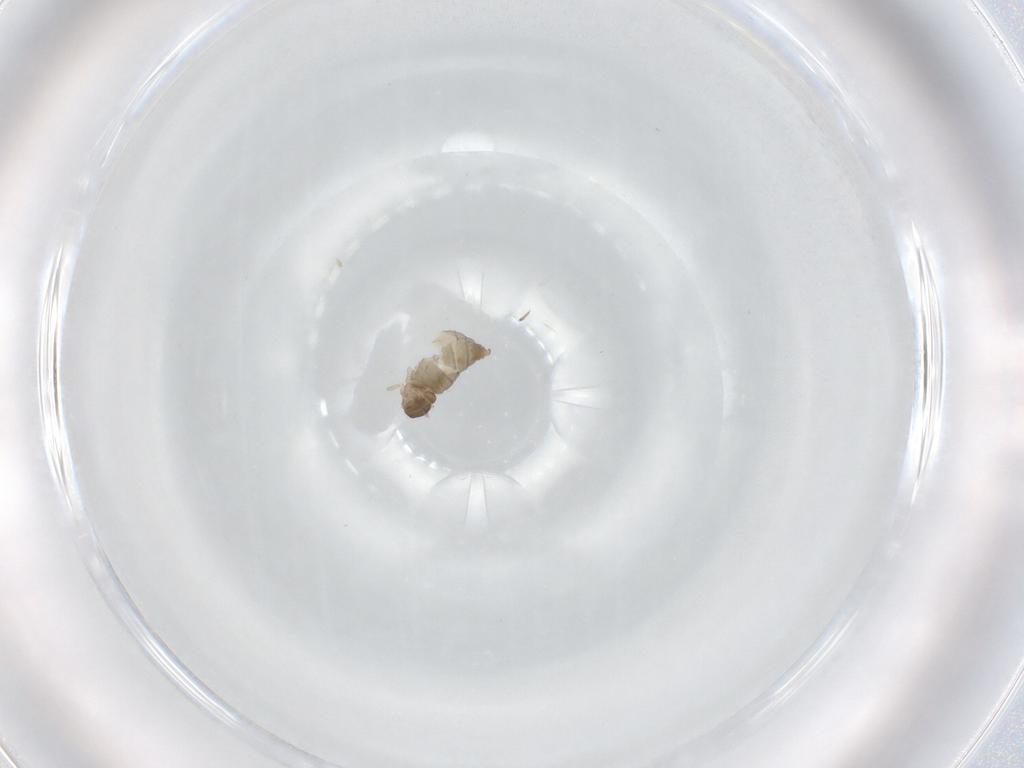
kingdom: Animalia
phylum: Arthropoda
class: Insecta
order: Diptera
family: Cecidomyiidae
